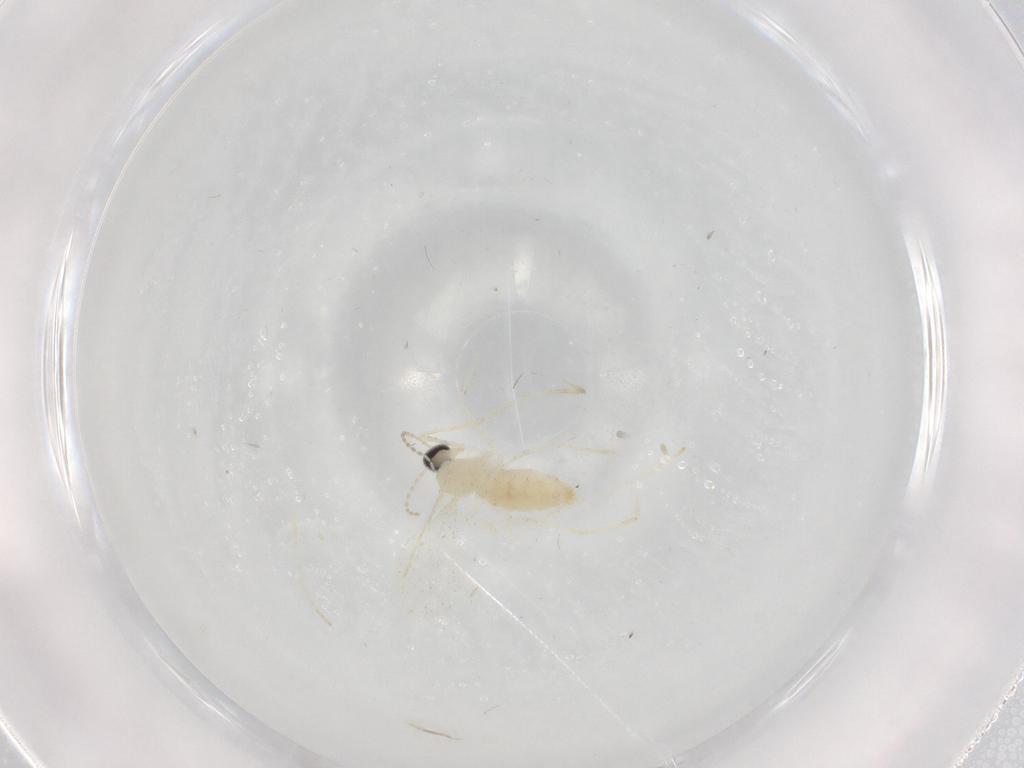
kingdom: Animalia
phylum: Arthropoda
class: Insecta
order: Diptera
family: Cecidomyiidae
